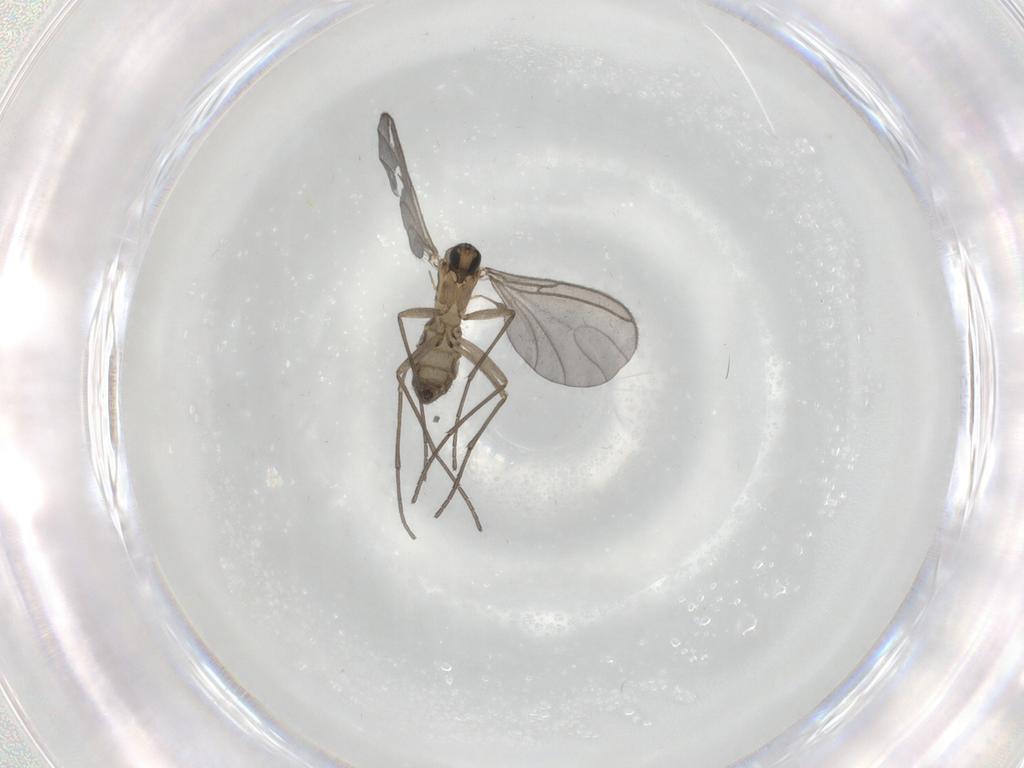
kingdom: Animalia
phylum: Arthropoda
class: Insecta
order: Diptera
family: Sciaridae
